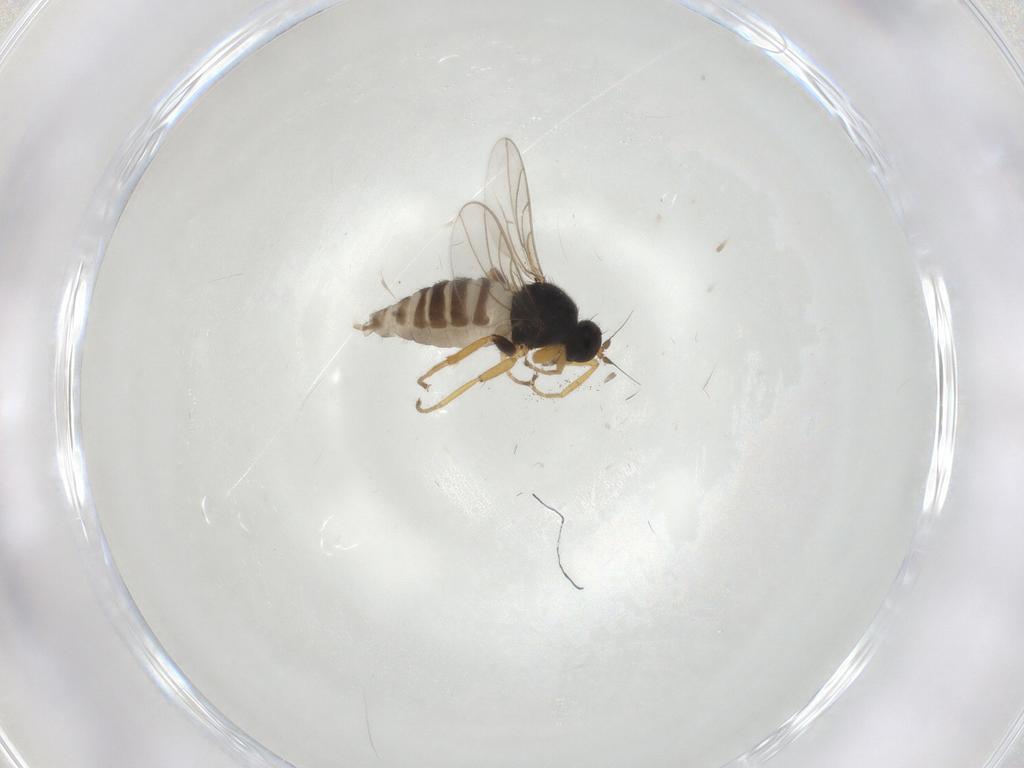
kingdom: Animalia
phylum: Arthropoda
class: Insecta
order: Diptera
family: Hybotidae
